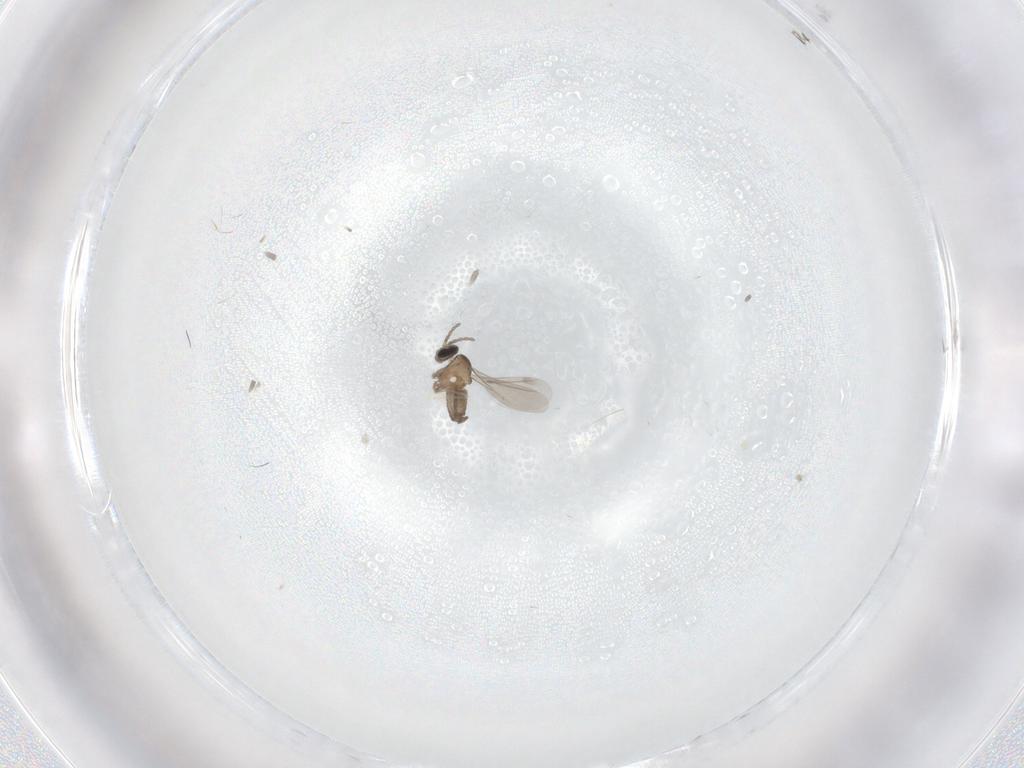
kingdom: Animalia
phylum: Arthropoda
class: Insecta
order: Diptera
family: Cecidomyiidae
